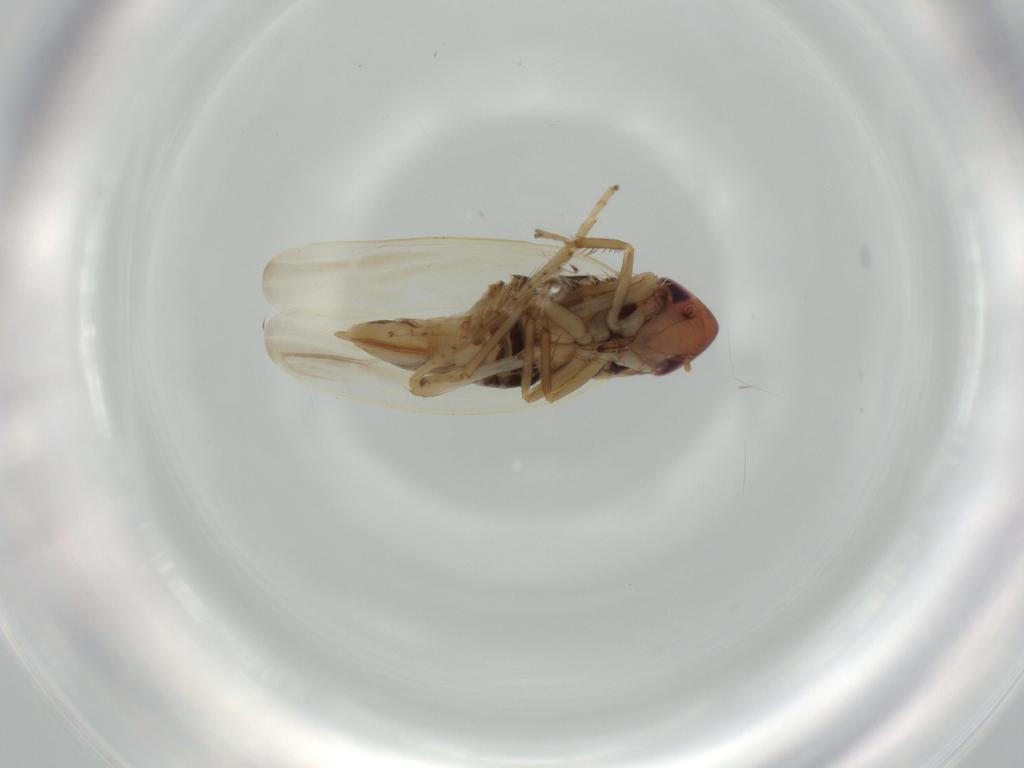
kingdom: Animalia
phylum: Arthropoda
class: Insecta
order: Hemiptera
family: Cicadellidae
